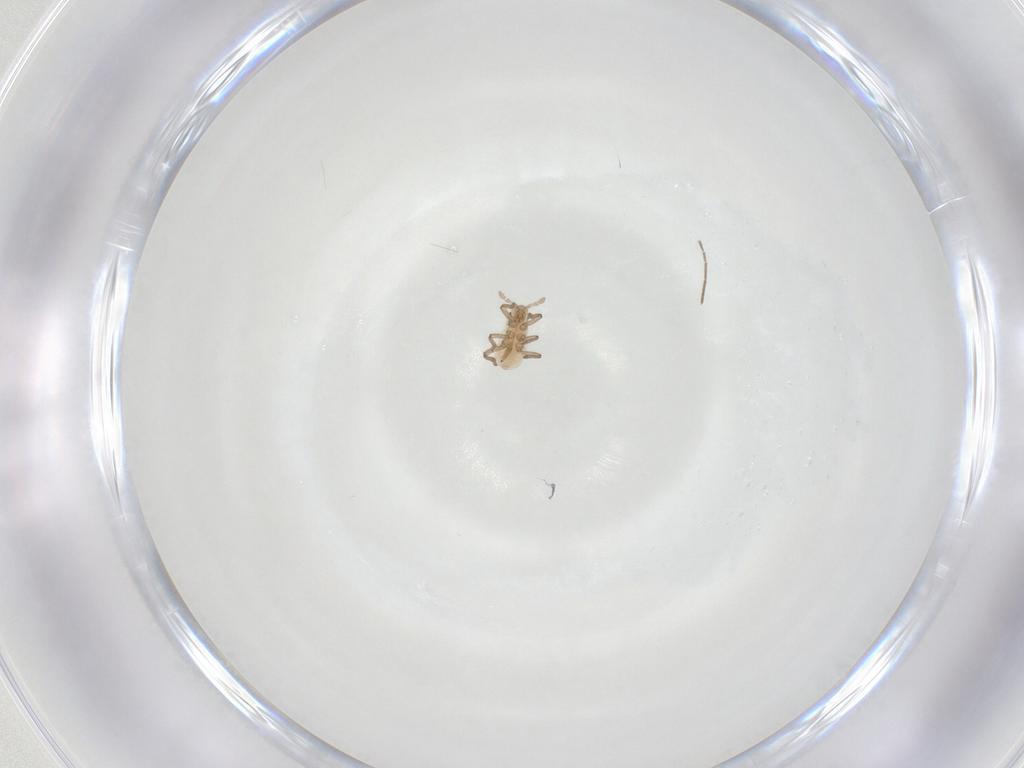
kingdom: Animalia
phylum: Arthropoda
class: Insecta
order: Hemiptera
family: Aphididae
